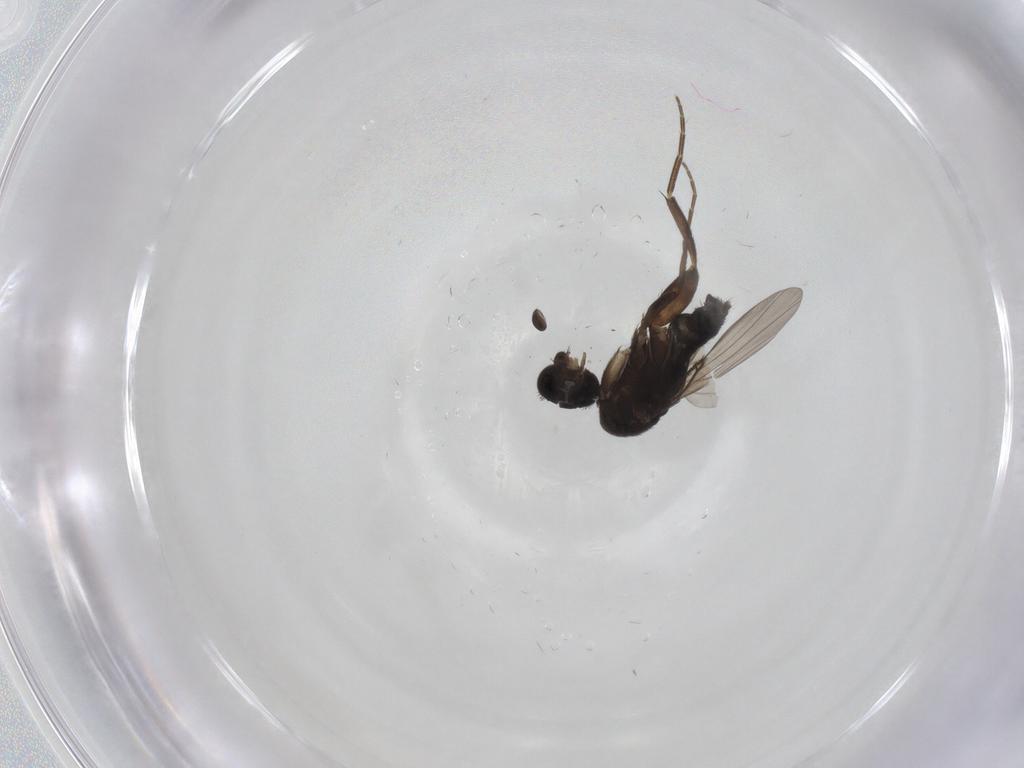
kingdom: Animalia
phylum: Arthropoda
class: Insecta
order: Diptera
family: Phoridae
